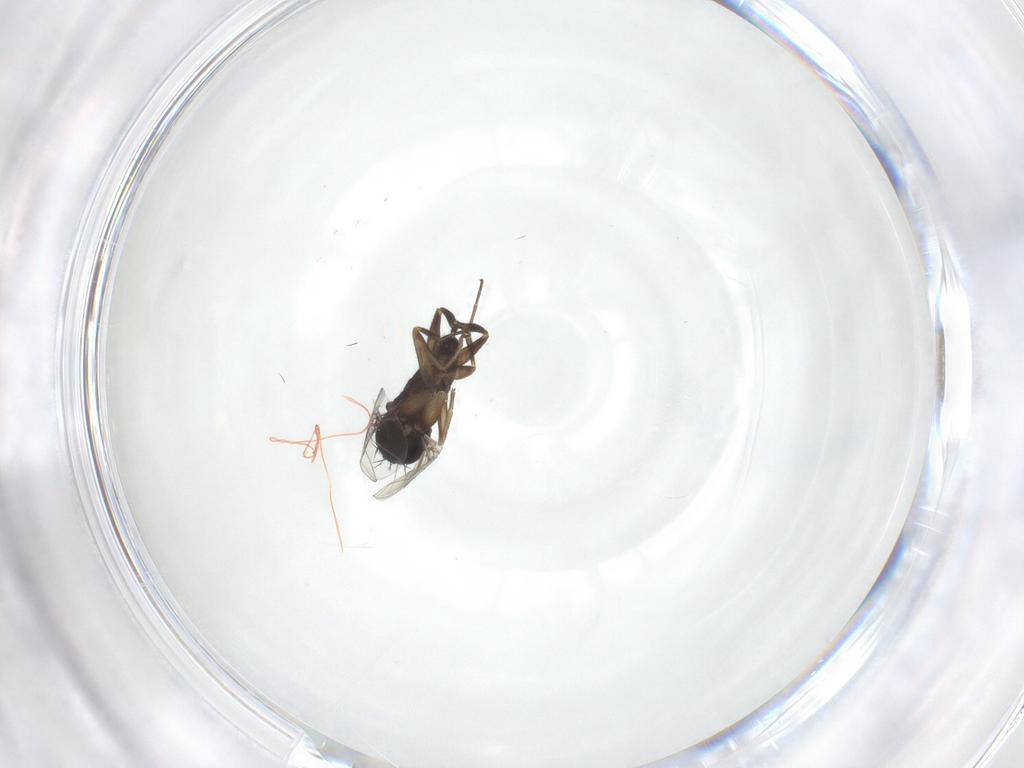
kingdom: Animalia
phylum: Arthropoda
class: Insecta
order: Diptera
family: Phoridae
